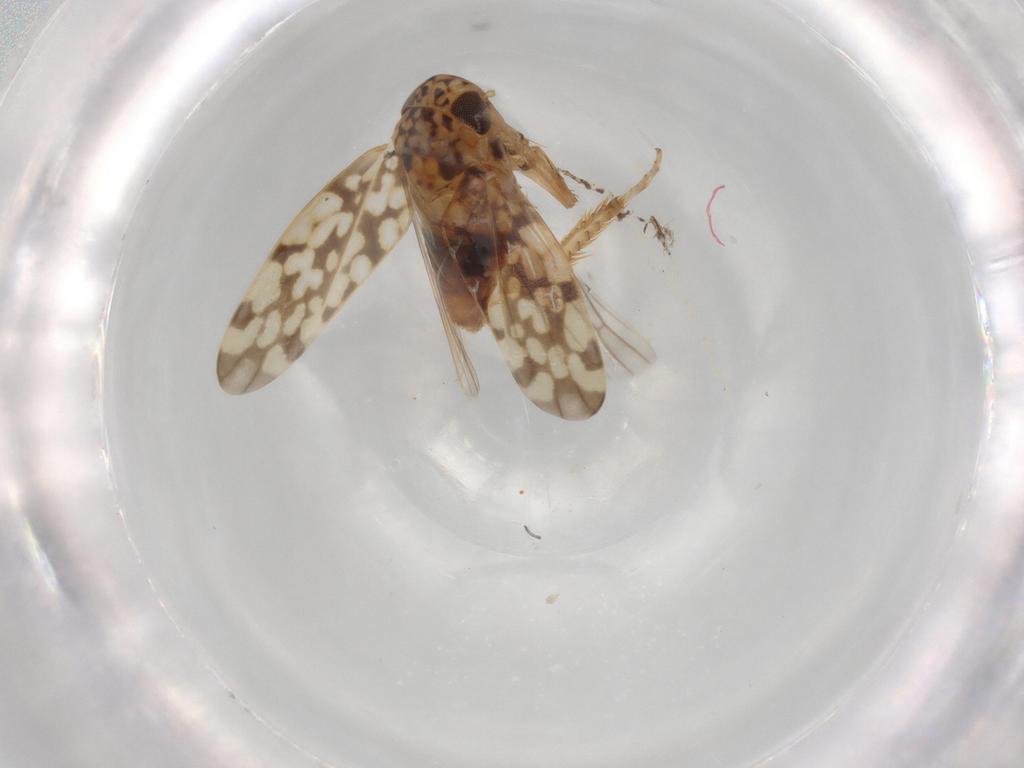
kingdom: Animalia
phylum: Arthropoda
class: Insecta
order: Hemiptera
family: Cicadellidae
